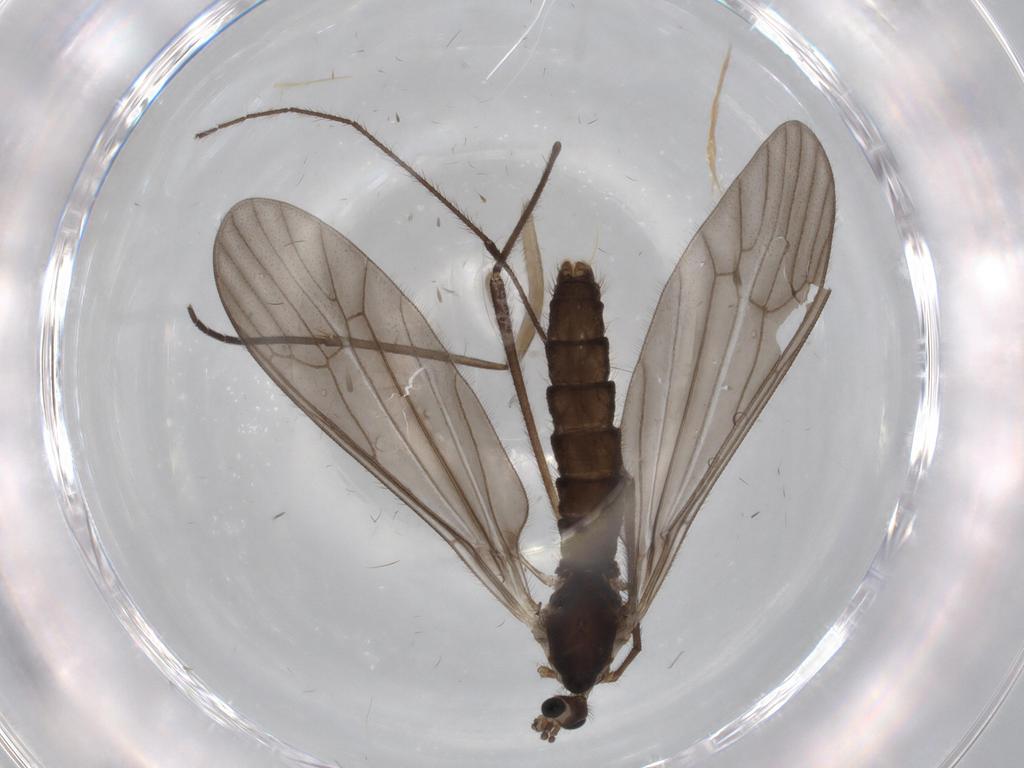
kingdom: Animalia
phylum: Arthropoda
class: Insecta
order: Diptera
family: Limoniidae
